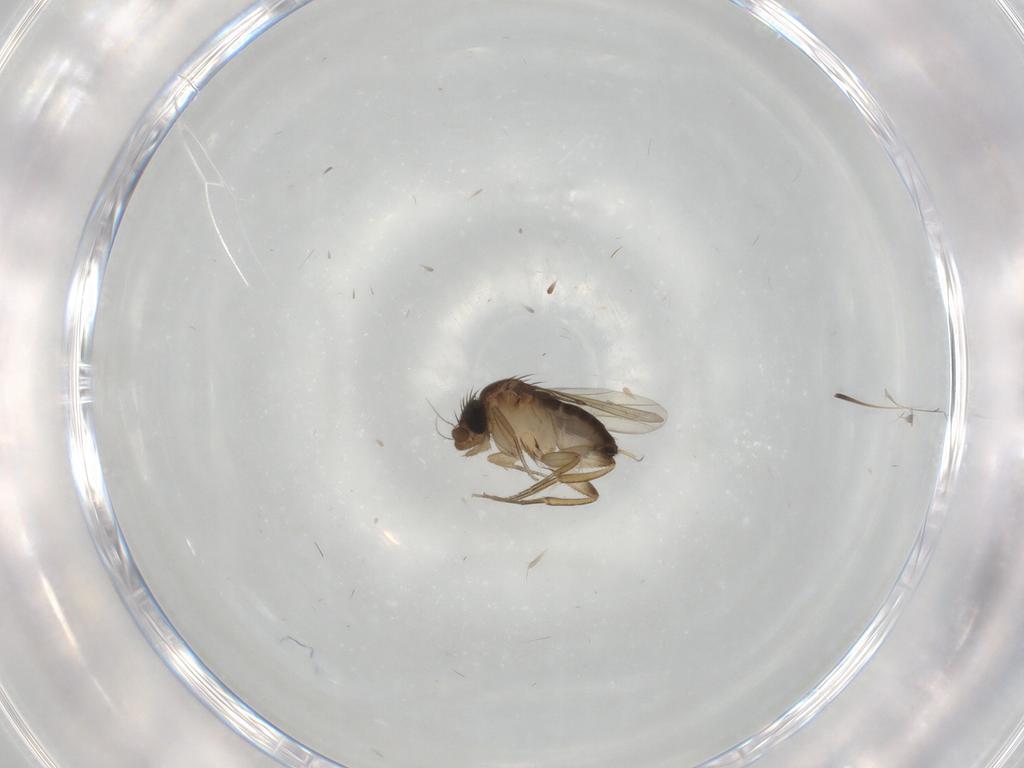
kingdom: Animalia
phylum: Arthropoda
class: Insecta
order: Diptera
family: Phoridae
